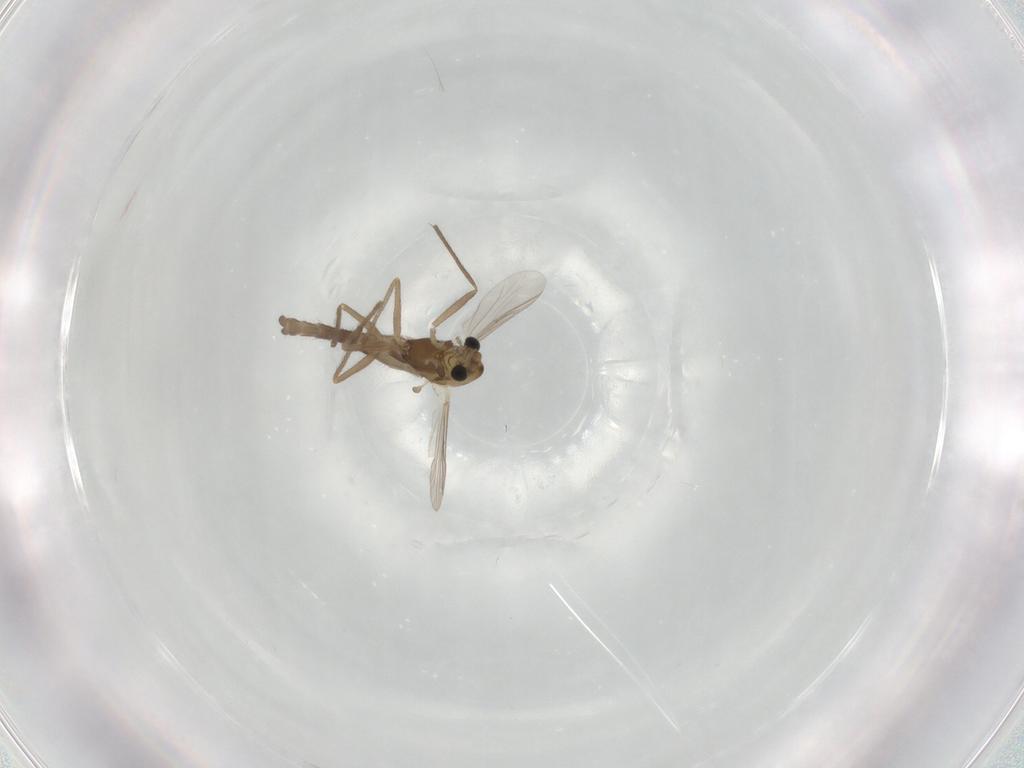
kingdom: Animalia
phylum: Arthropoda
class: Insecta
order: Diptera
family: Chironomidae
